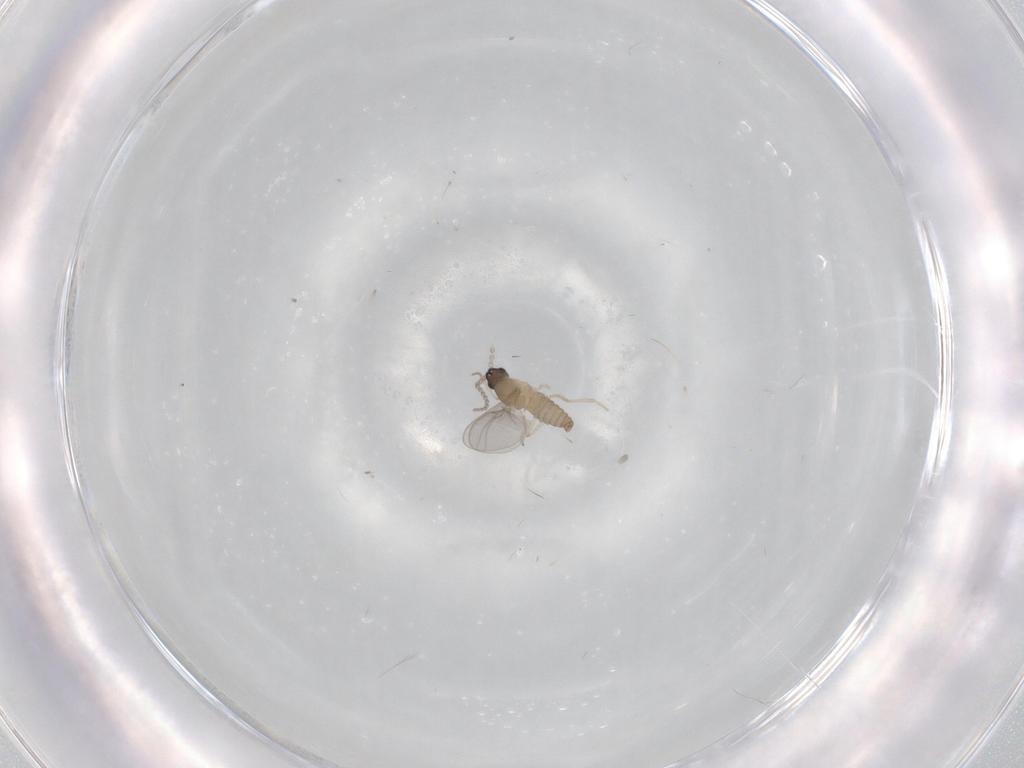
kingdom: Animalia
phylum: Arthropoda
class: Insecta
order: Diptera
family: Cecidomyiidae
